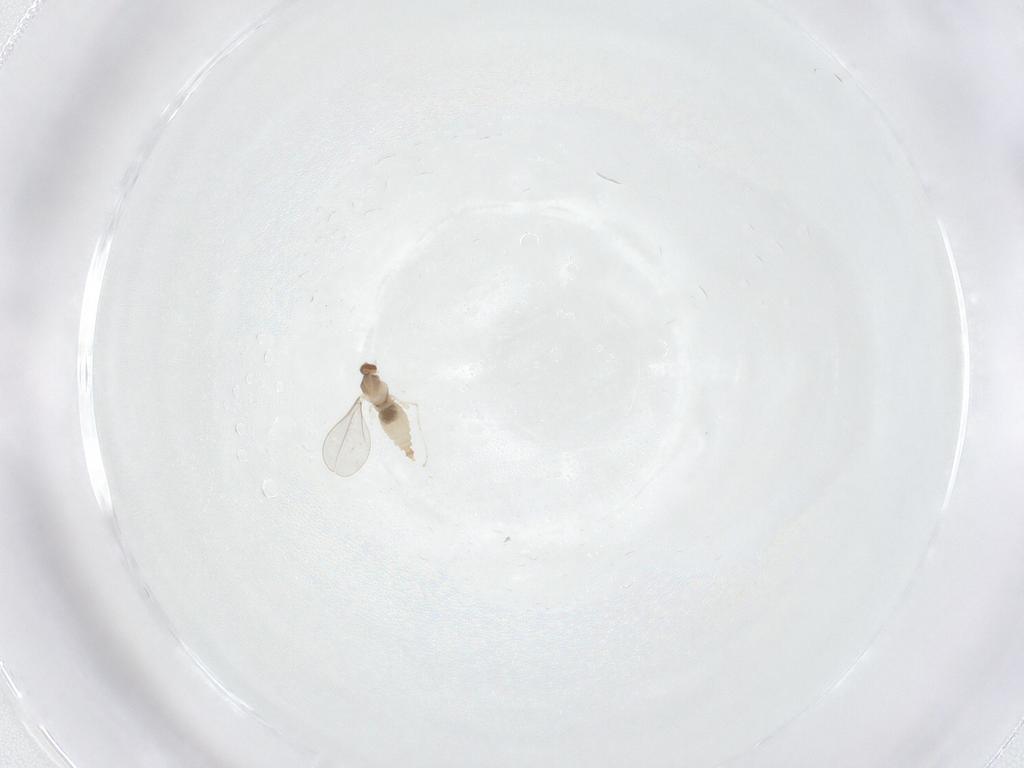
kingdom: Animalia
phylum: Arthropoda
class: Insecta
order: Diptera
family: Cecidomyiidae
